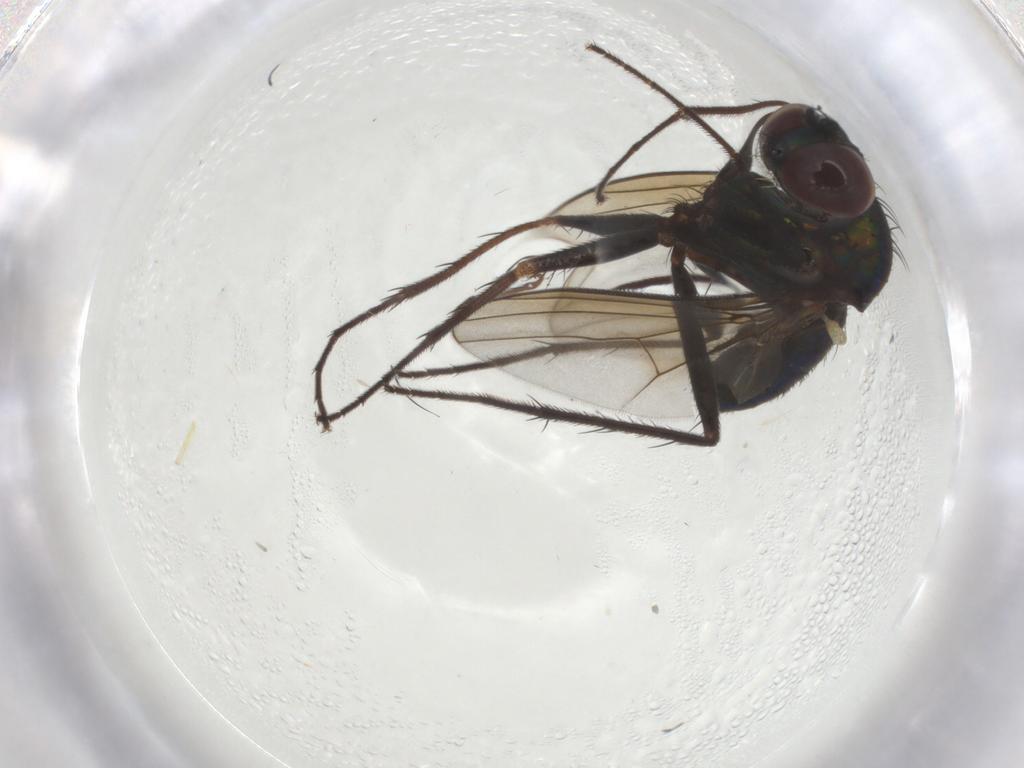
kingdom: Animalia
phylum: Arthropoda
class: Insecta
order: Diptera
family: Dolichopodidae
